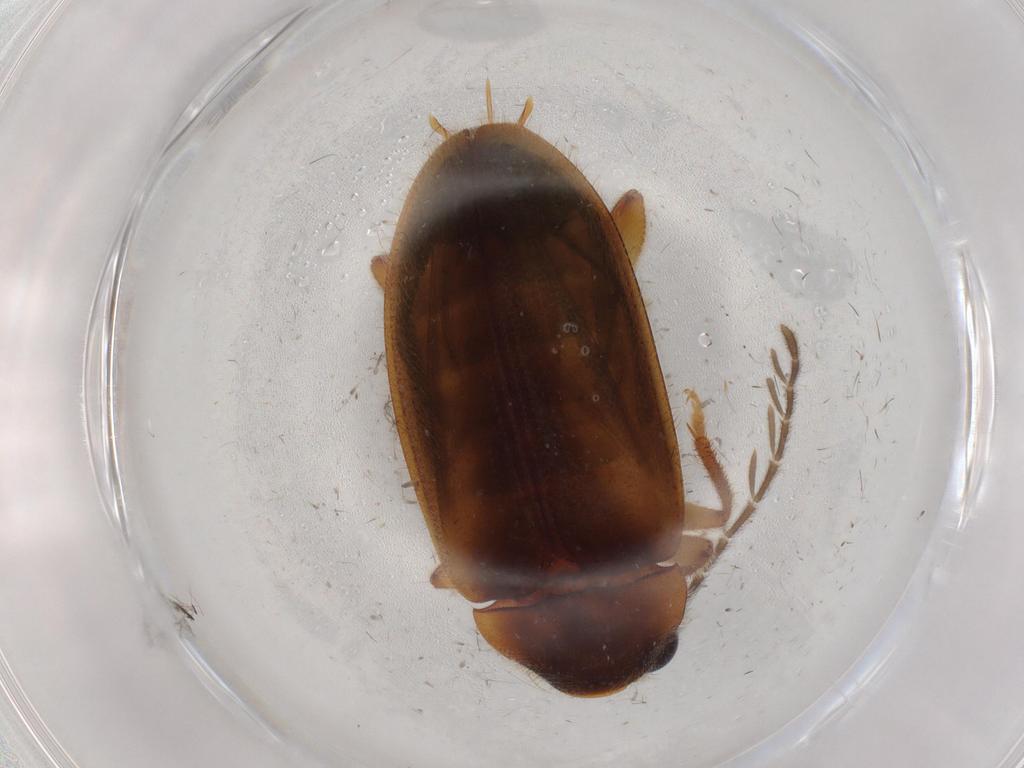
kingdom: Animalia
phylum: Arthropoda
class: Insecta
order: Coleoptera
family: Ptilodactylidae
